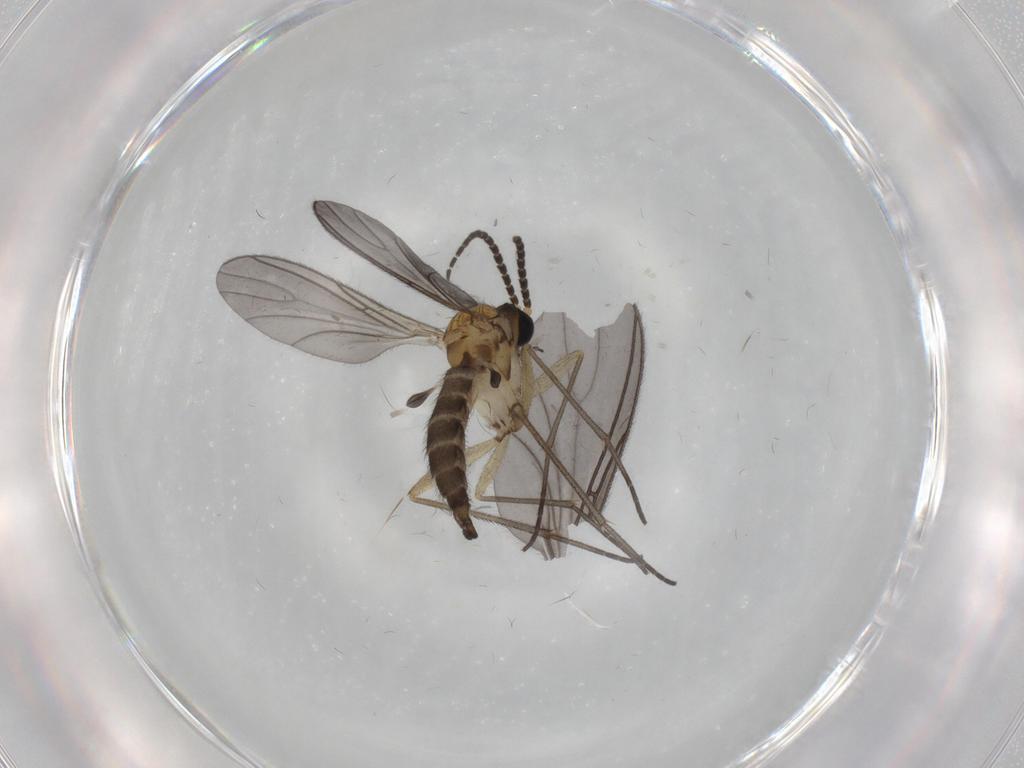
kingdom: Animalia
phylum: Arthropoda
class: Insecta
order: Diptera
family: Sciaridae
